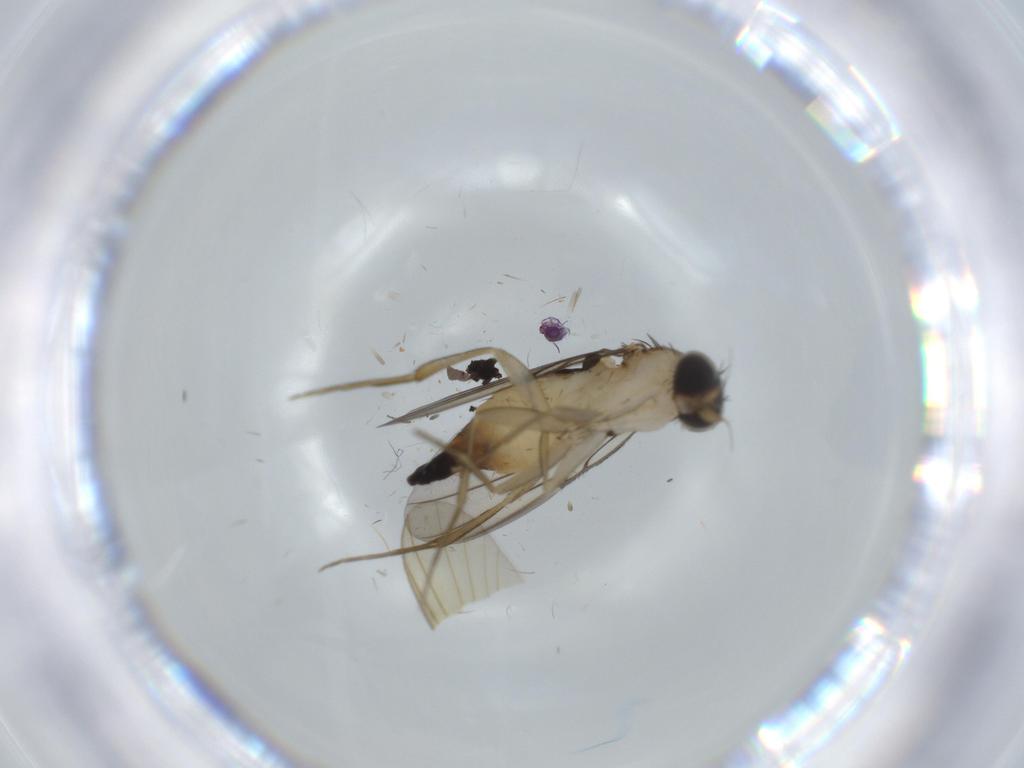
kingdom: Animalia
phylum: Arthropoda
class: Insecta
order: Diptera
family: Phoridae
